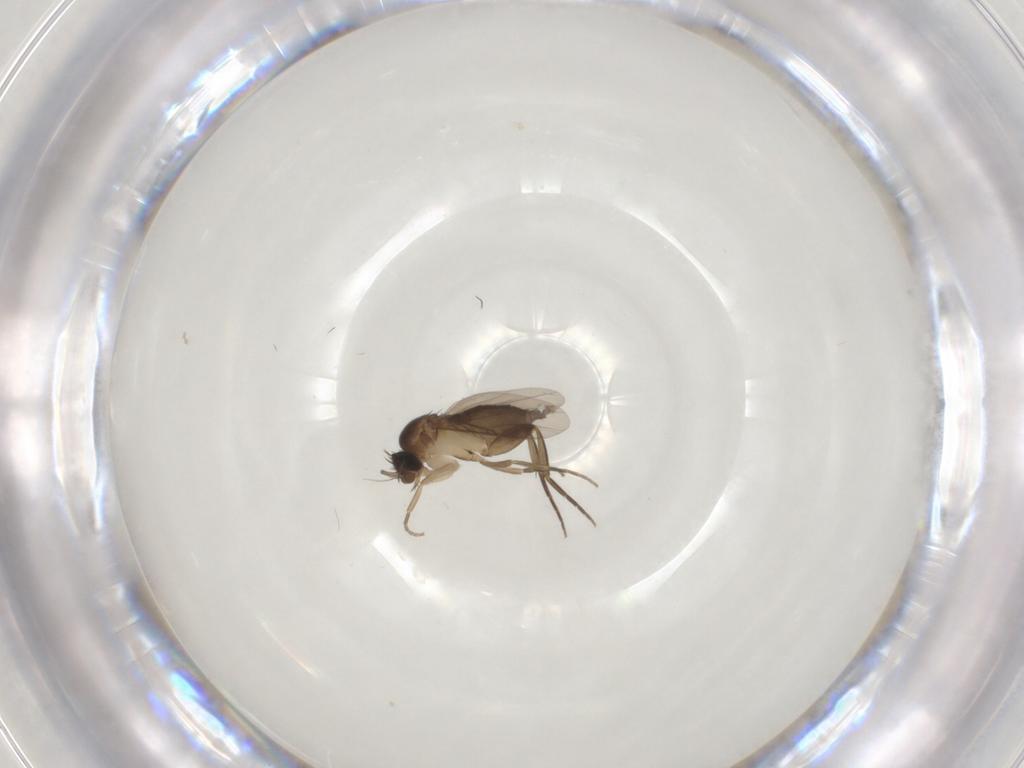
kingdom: Animalia
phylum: Arthropoda
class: Insecta
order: Diptera
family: Phoridae
